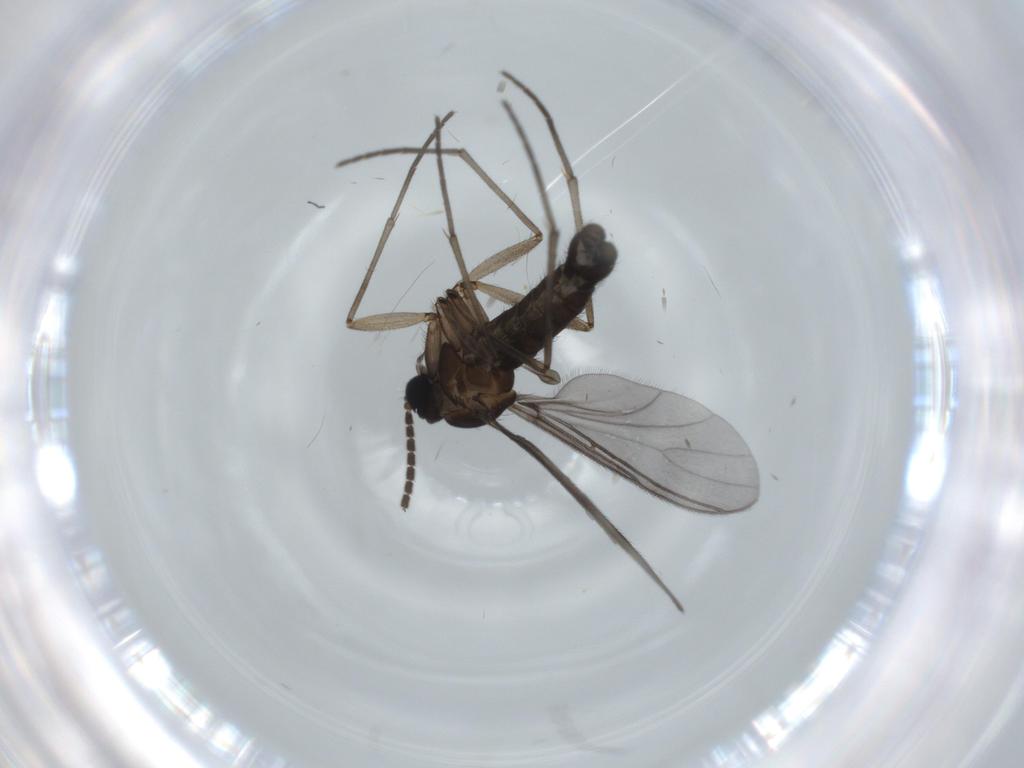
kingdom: Animalia
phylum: Arthropoda
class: Insecta
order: Diptera
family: Sciaridae
